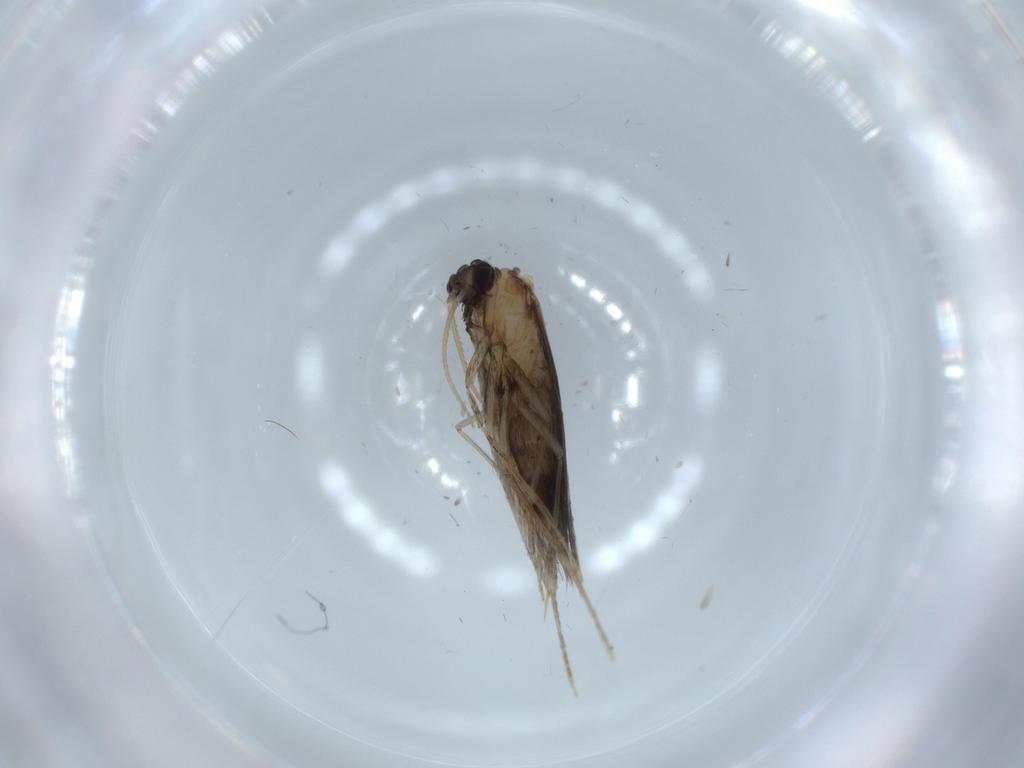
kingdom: Animalia
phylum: Arthropoda
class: Insecta
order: Trichoptera
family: Hydroptilidae
